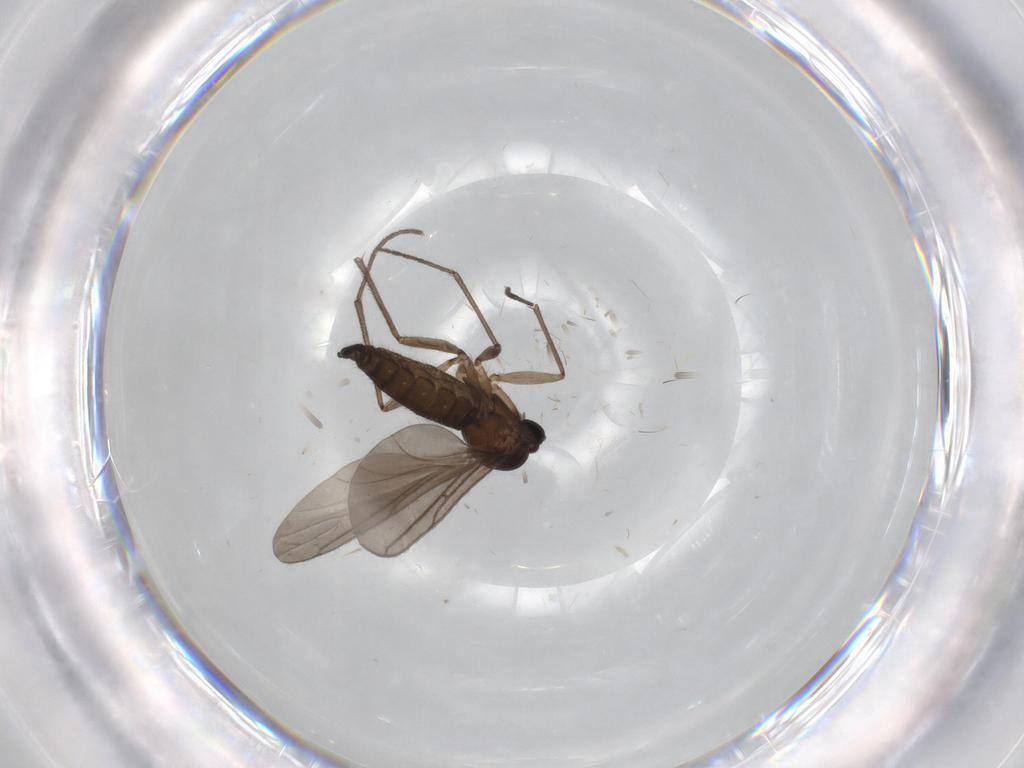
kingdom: Animalia
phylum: Arthropoda
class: Insecta
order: Diptera
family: Sciaridae
